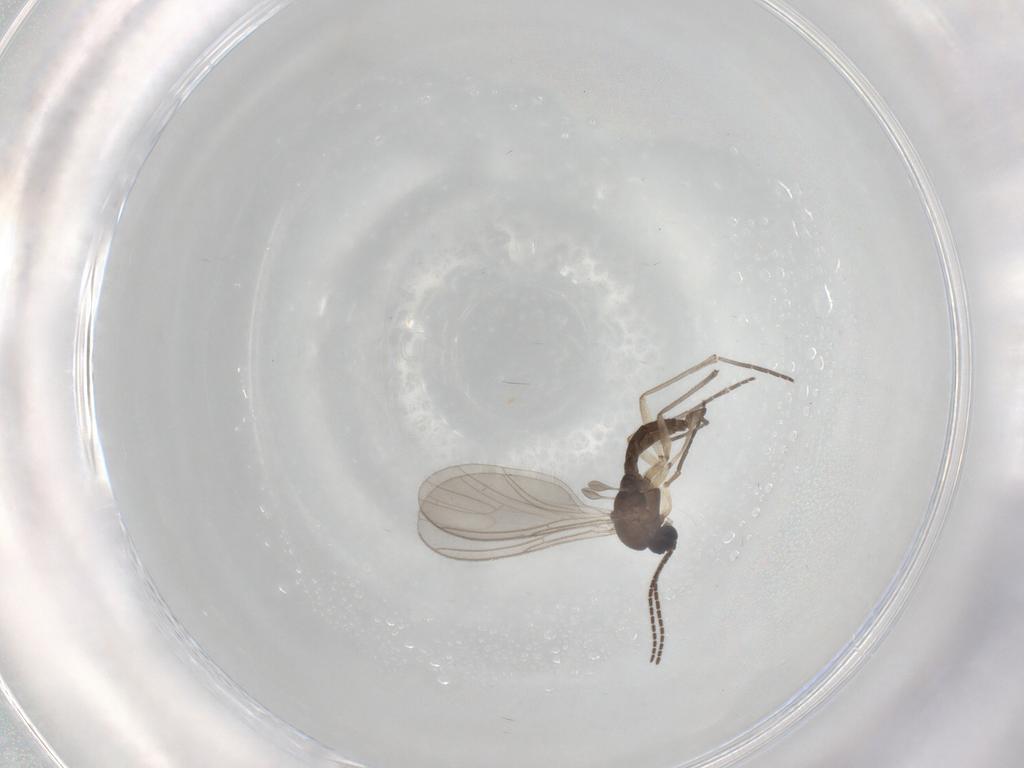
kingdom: Animalia
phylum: Arthropoda
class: Insecta
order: Diptera
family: Sciaridae
